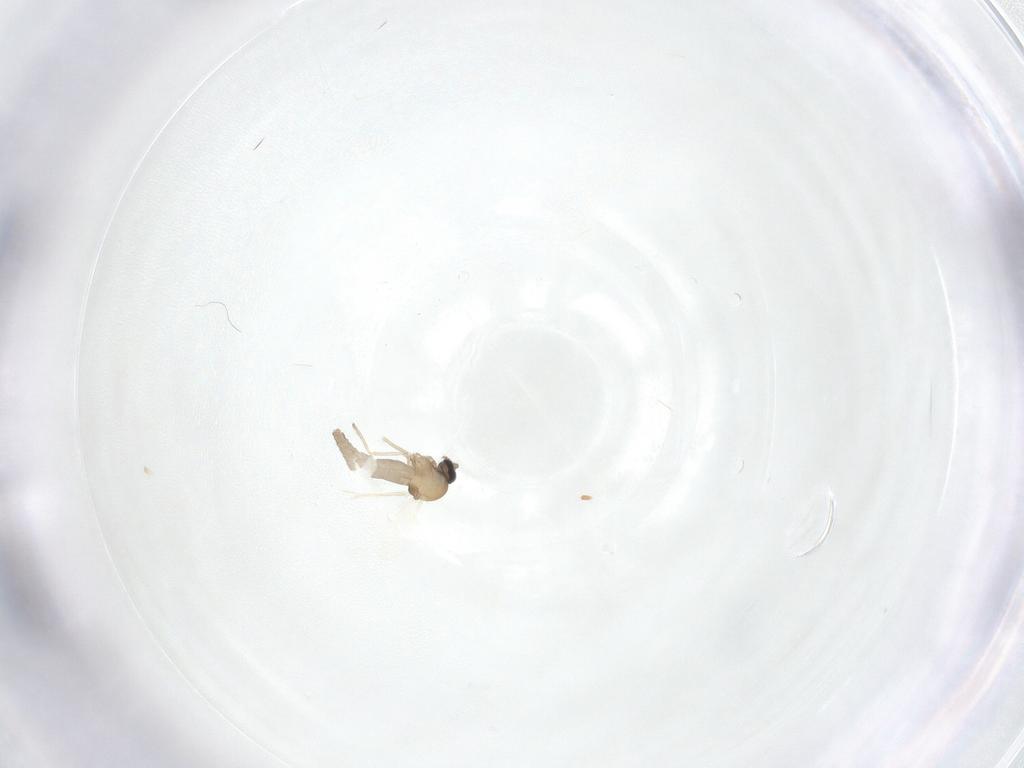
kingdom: Animalia
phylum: Arthropoda
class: Insecta
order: Diptera
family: Ceratopogonidae
